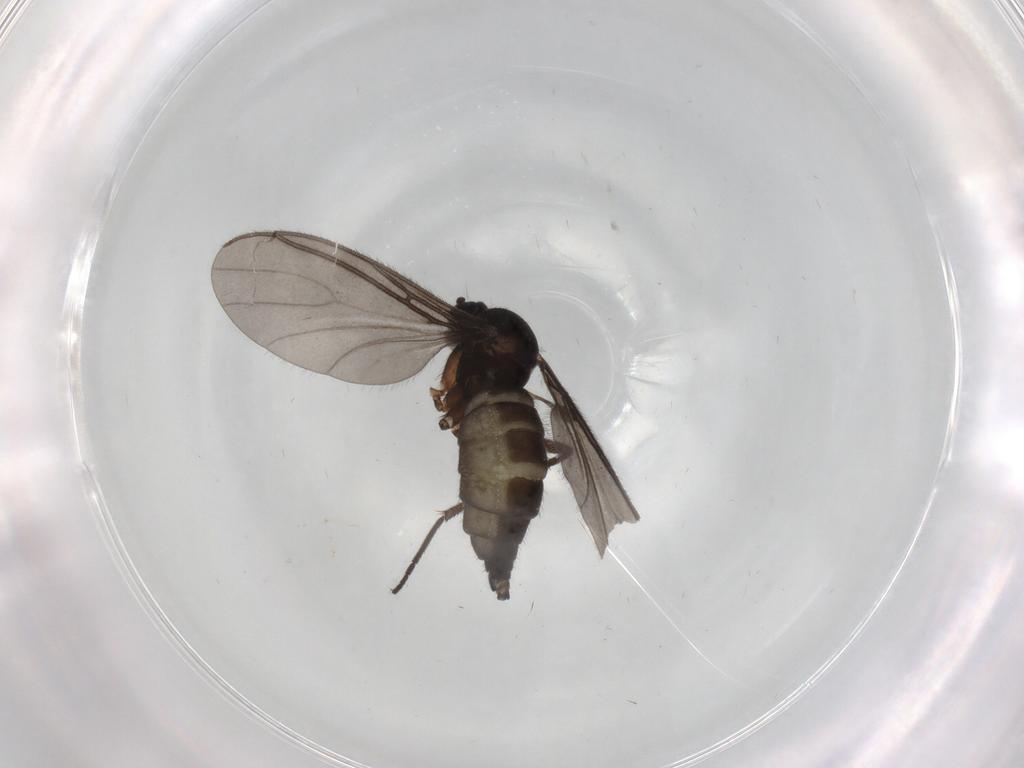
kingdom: Animalia
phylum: Arthropoda
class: Insecta
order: Diptera
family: Sciaridae
